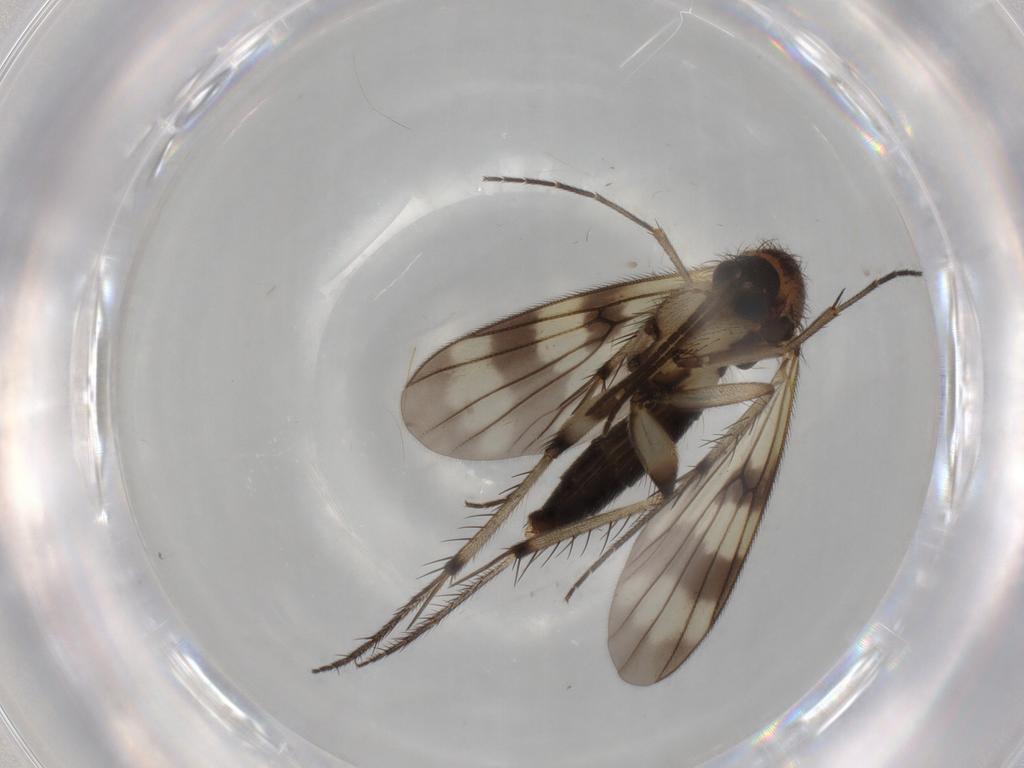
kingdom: Animalia
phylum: Arthropoda
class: Insecta
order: Diptera
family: Mycetophilidae
